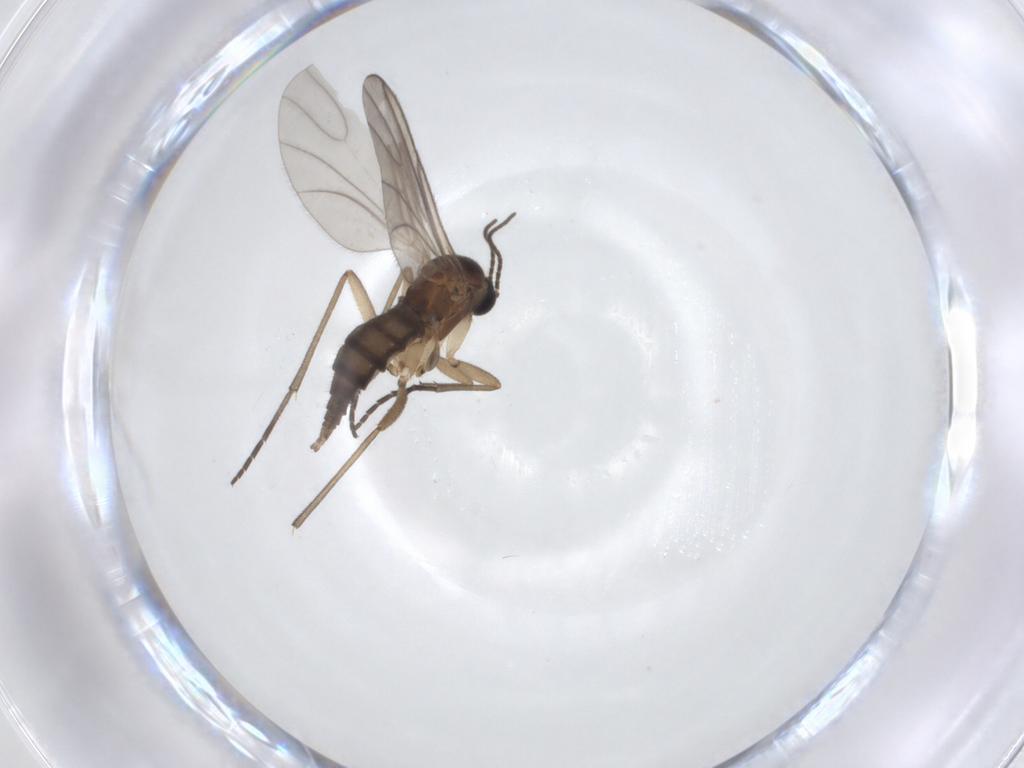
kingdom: Animalia
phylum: Arthropoda
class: Insecta
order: Diptera
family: Sciaridae
